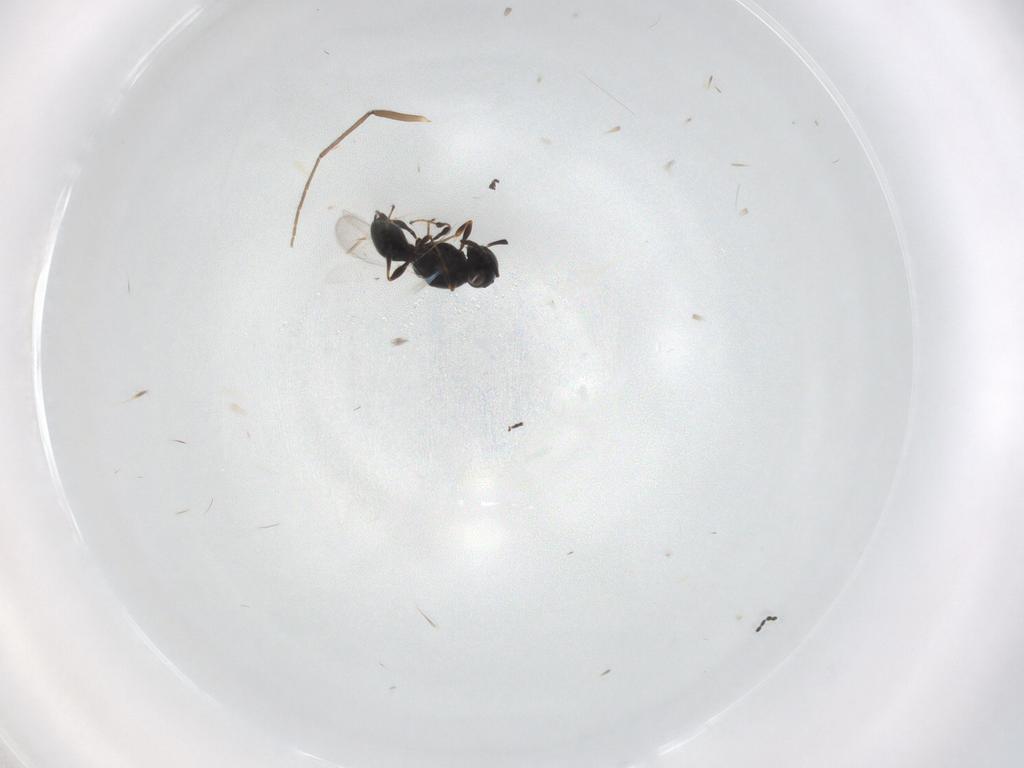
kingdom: Animalia
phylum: Arthropoda
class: Insecta
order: Hymenoptera
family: Platygastridae
